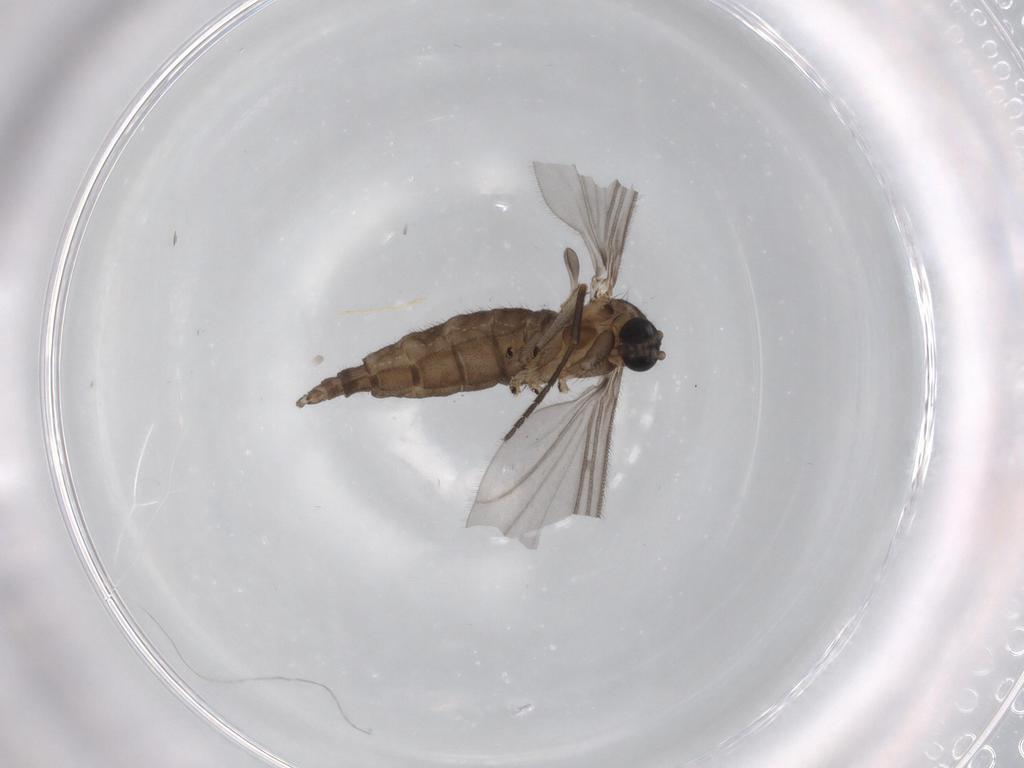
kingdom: Animalia
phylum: Arthropoda
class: Insecta
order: Diptera
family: Sciaridae
